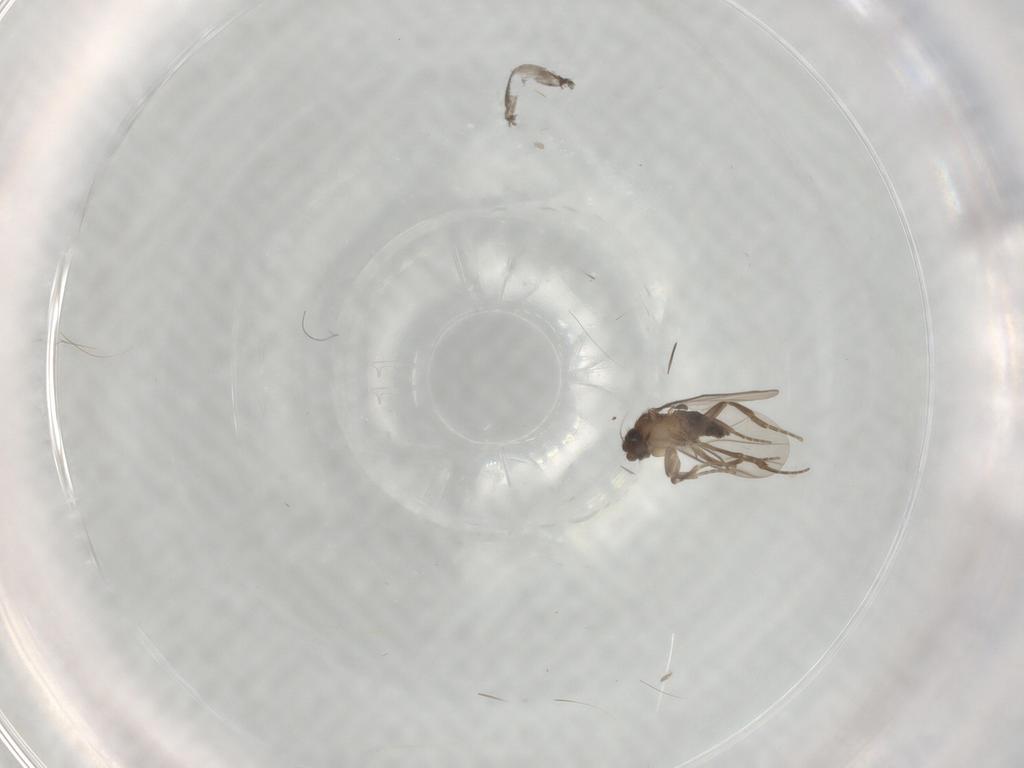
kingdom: Animalia
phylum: Arthropoda
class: Insecta
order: Diptera
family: Phoridae
